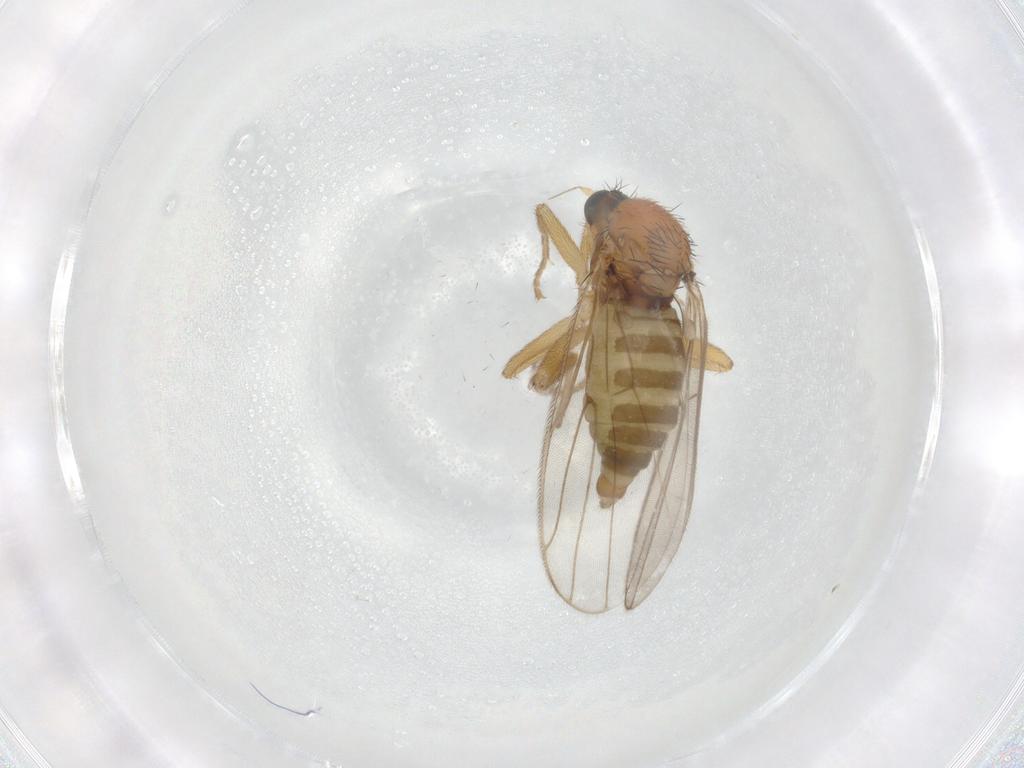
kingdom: Animalia
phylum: Arthropoda
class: Insecta
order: Diptera
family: Hybotidae
